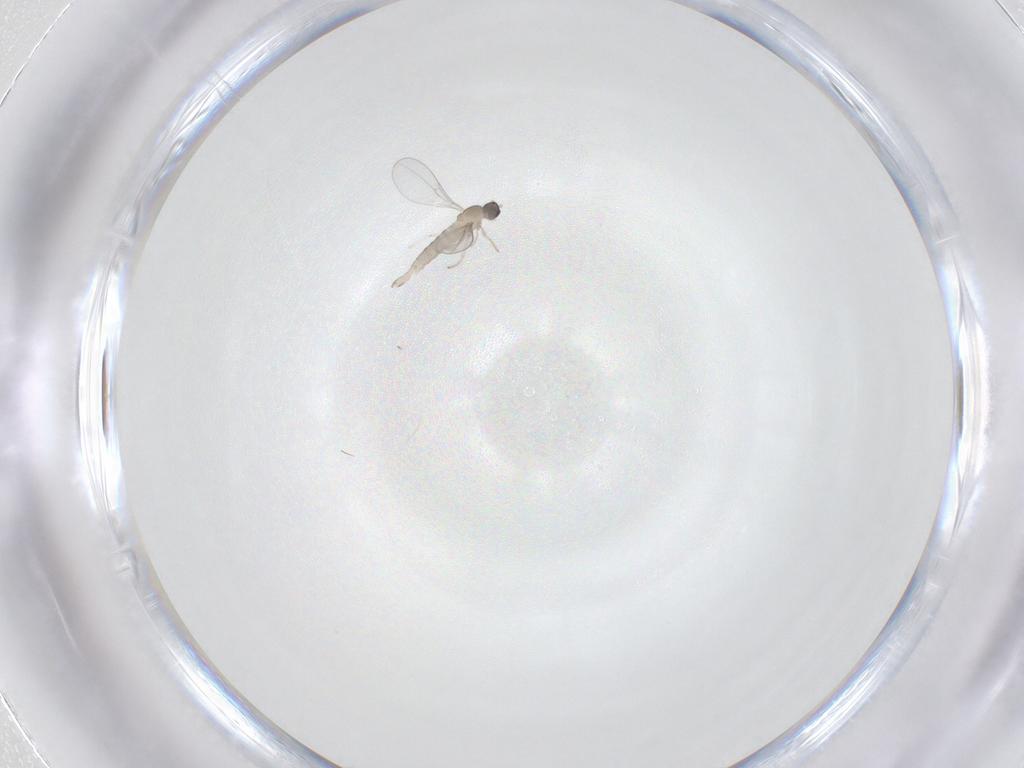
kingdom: Animalia
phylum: Arthropoda
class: Insecta
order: Diptera
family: Cecidomyiidae
